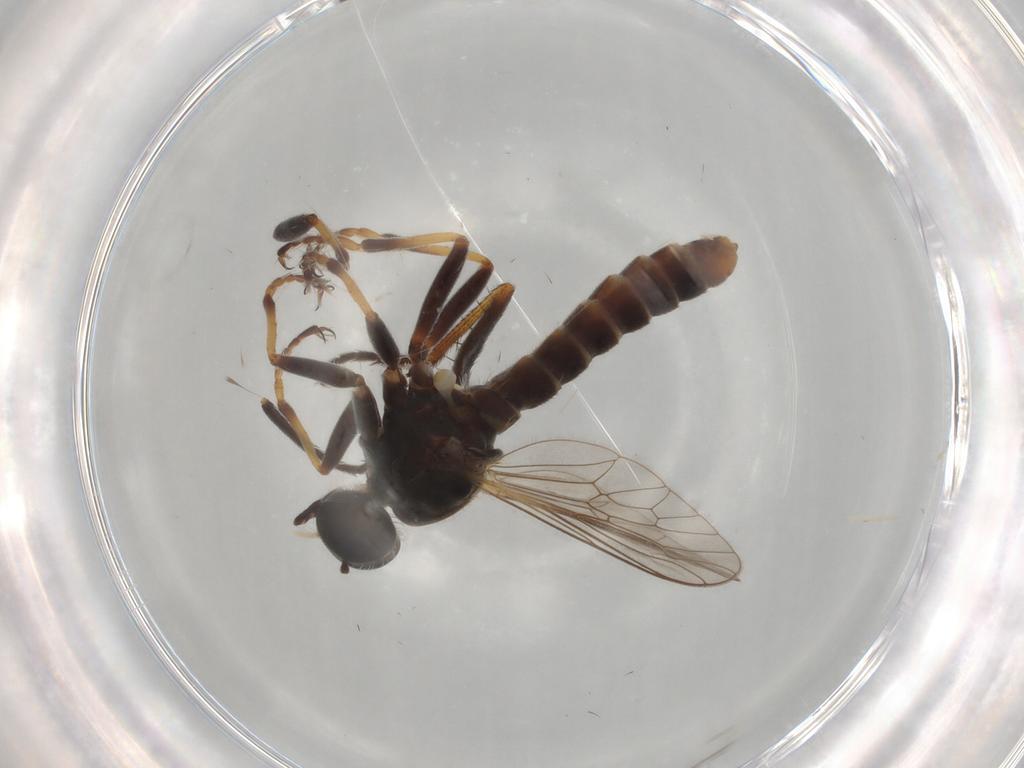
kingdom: Animalia
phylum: Arthropoda
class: Insecta
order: Diptera
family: Asilidae
